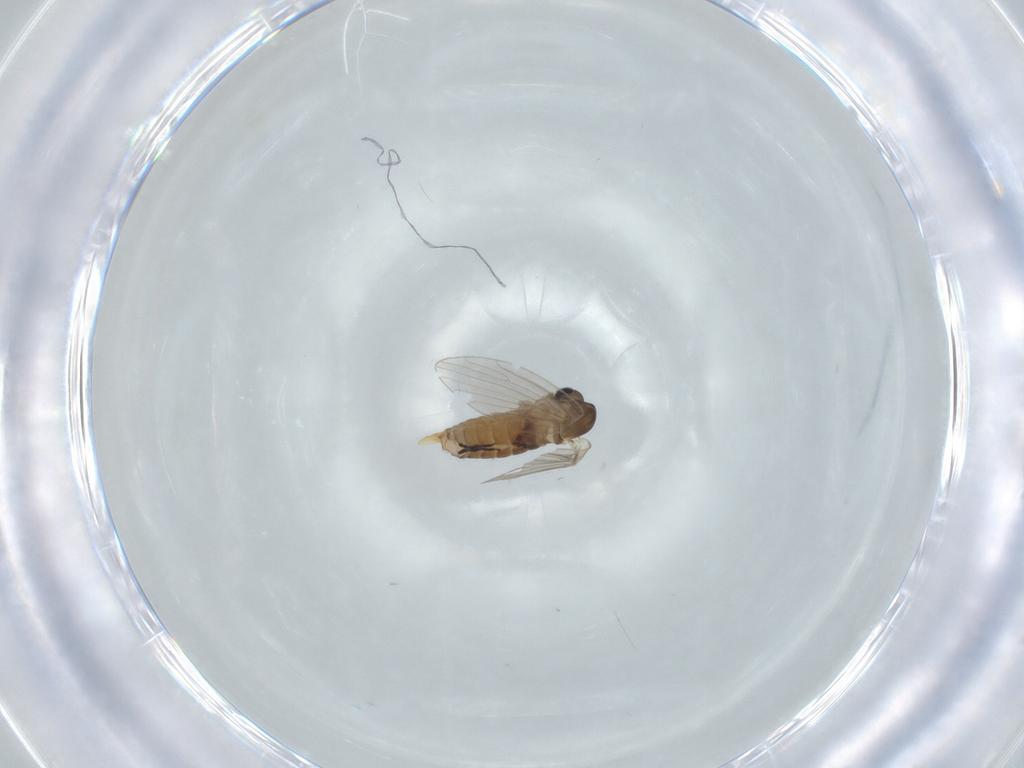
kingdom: Animalia
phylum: Arthropoda
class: Insecta
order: Diptera
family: Psychodidae
